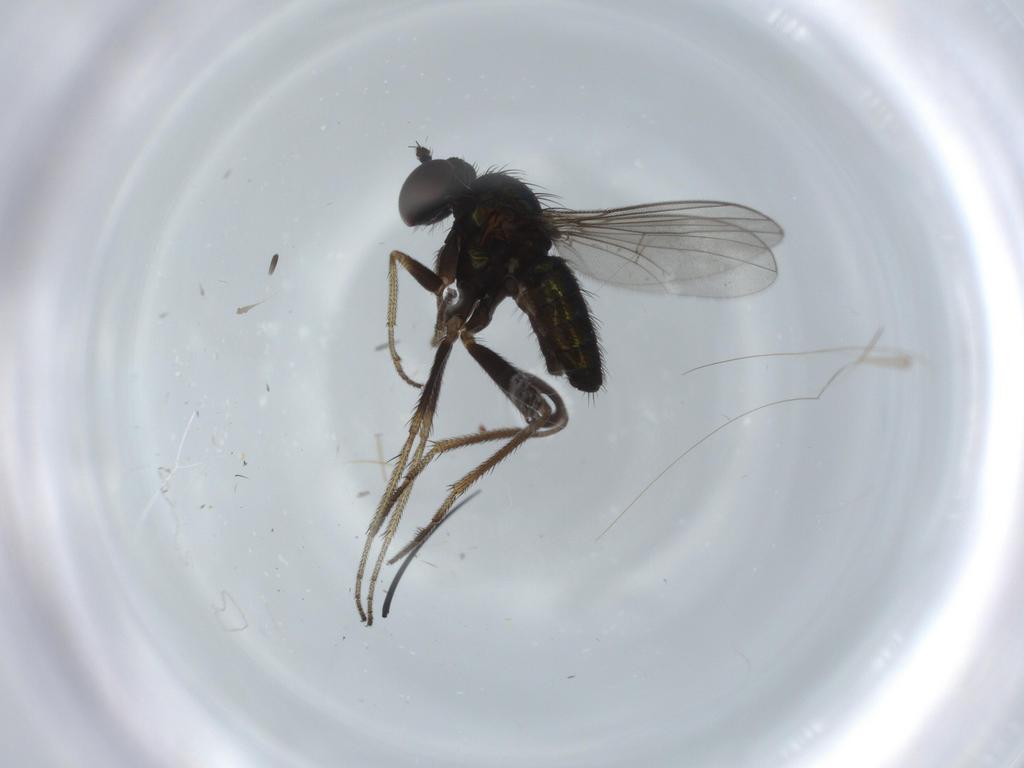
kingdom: Animalia
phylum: Arthropoda
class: Insecta
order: Diptera
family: Dolichopodidae
